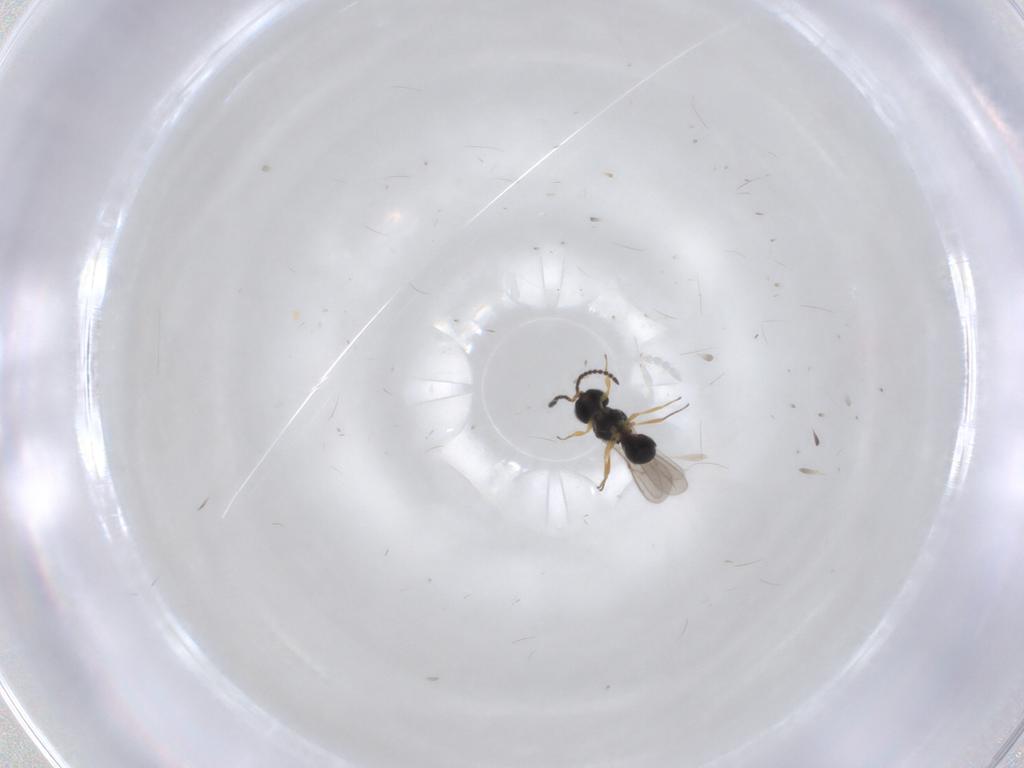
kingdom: Animalia
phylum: Arthropoda
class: Insecta
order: Hymenoptera
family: Scelionidae
